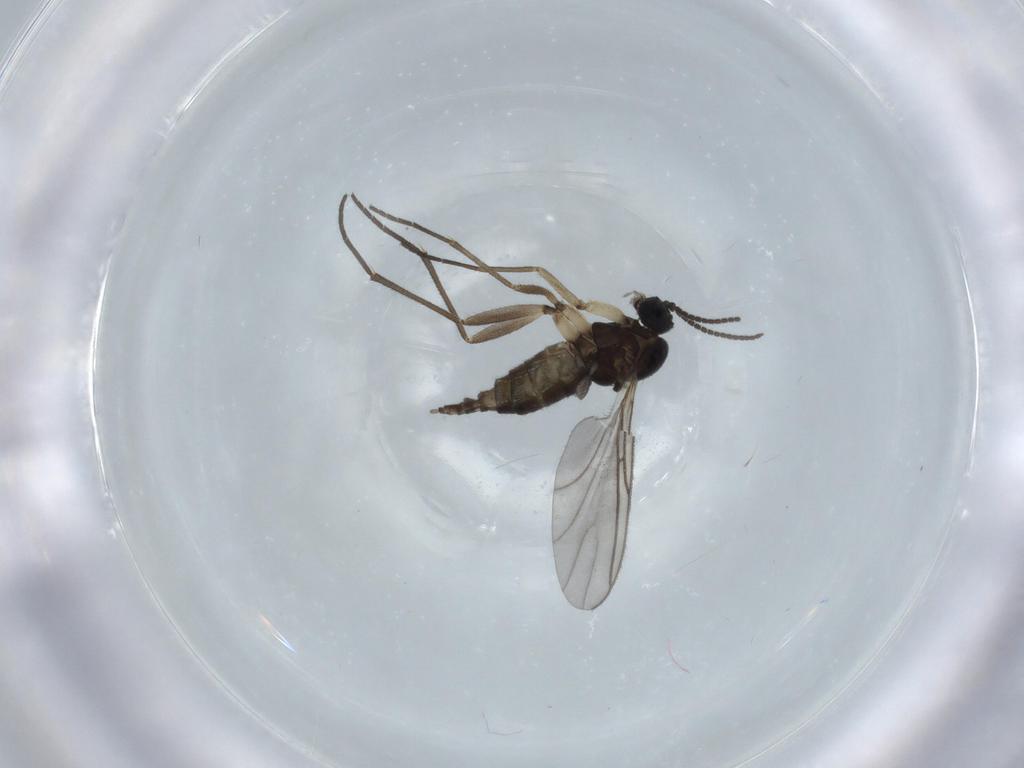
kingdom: Animalia
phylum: Arthropoda
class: Insecta
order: Diptera
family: Sciaridae
